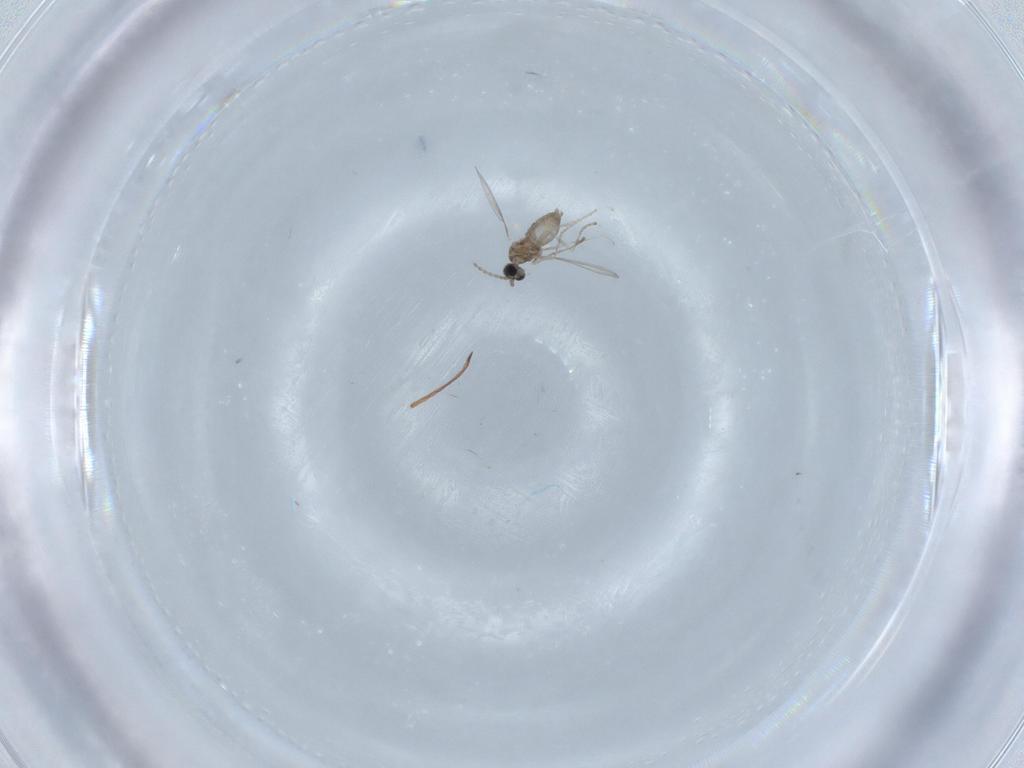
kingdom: Animalia
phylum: Arthropoda
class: Insecta
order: Diptera
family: Cecidomyiidae
